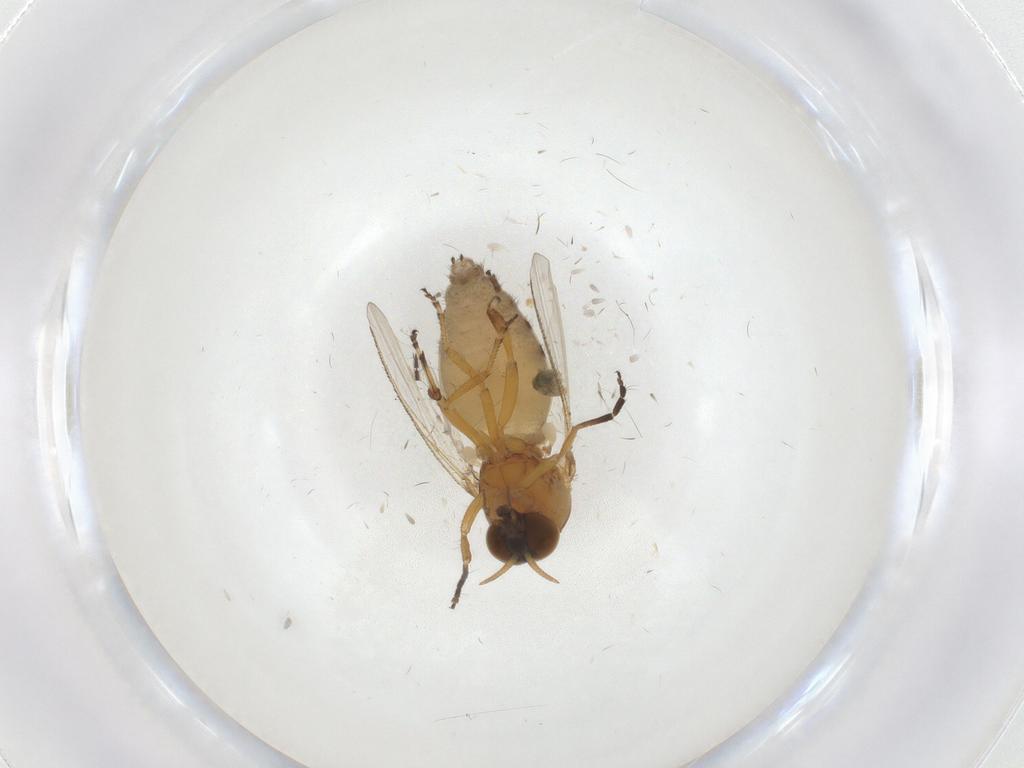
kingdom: Animalia
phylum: Arthropoda
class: Insecta
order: Diptera
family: Simuliidae
